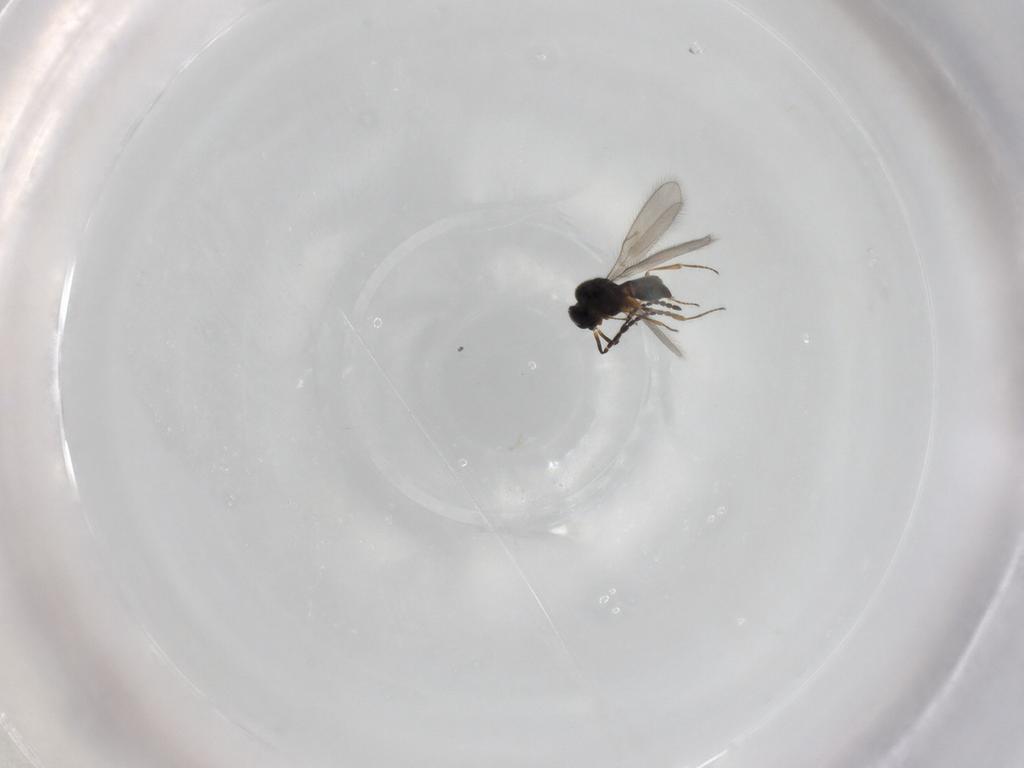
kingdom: Animalia
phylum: Arthropoda
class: Insecta
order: Hymenoptera
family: Scelionidae
